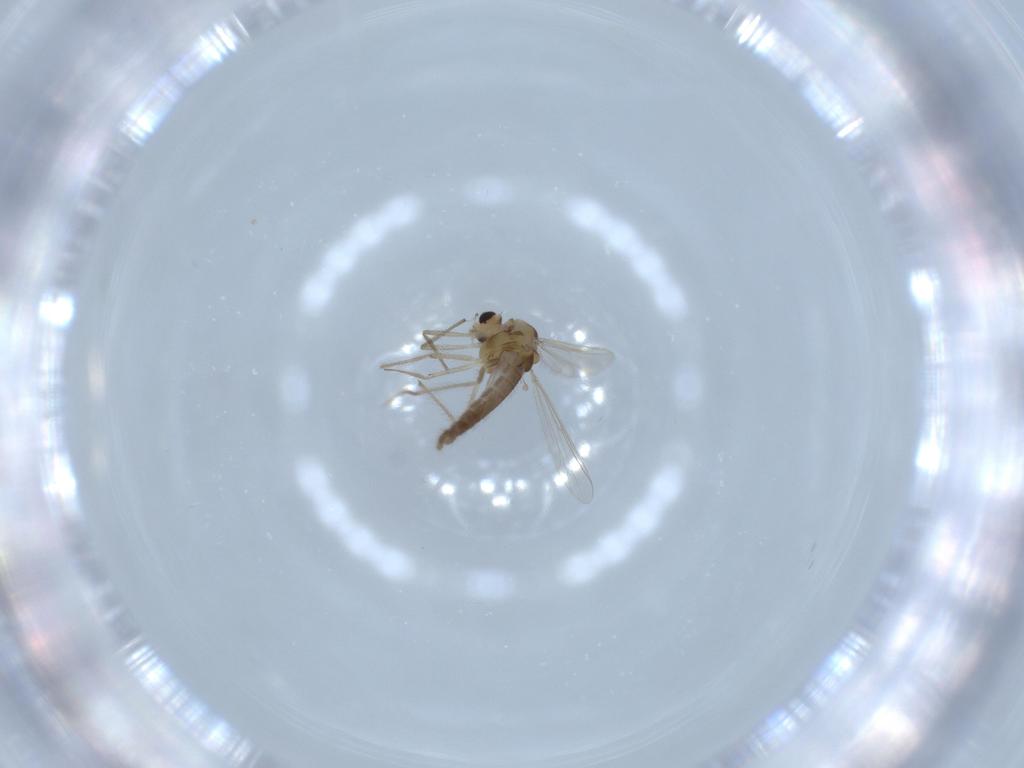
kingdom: Animalia
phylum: Arthropoda
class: Insecta
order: Diptera
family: Chironomidae
